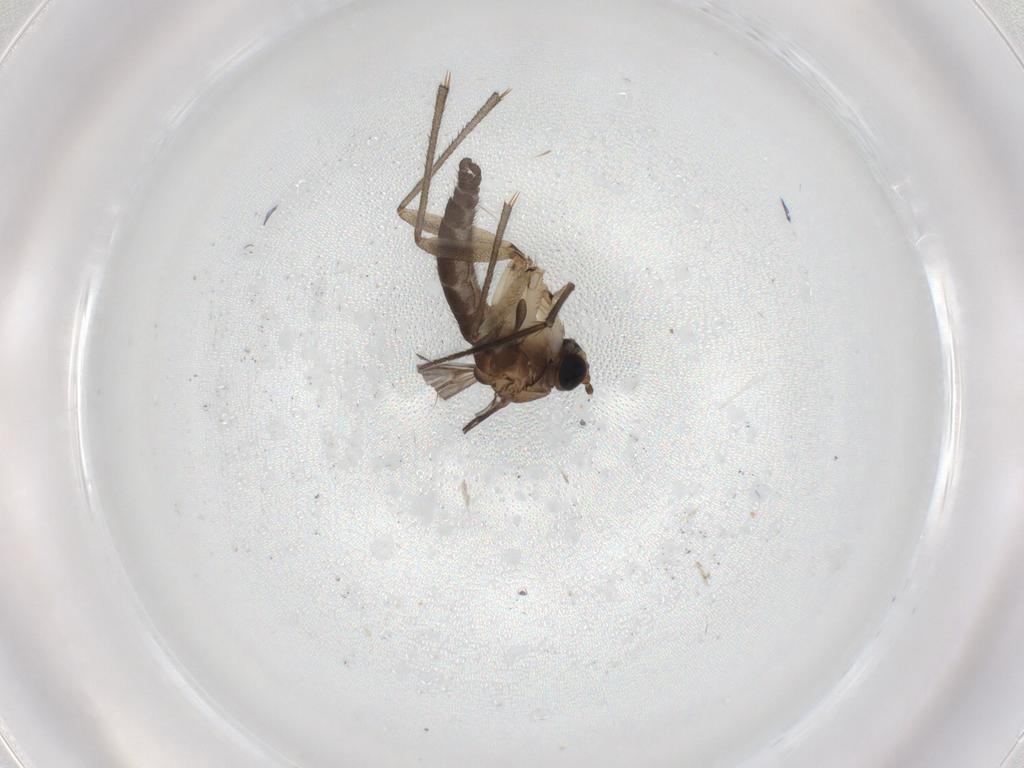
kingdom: Animalia
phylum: Arthropoda
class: Insecta
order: Diptera
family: Sciaridae
